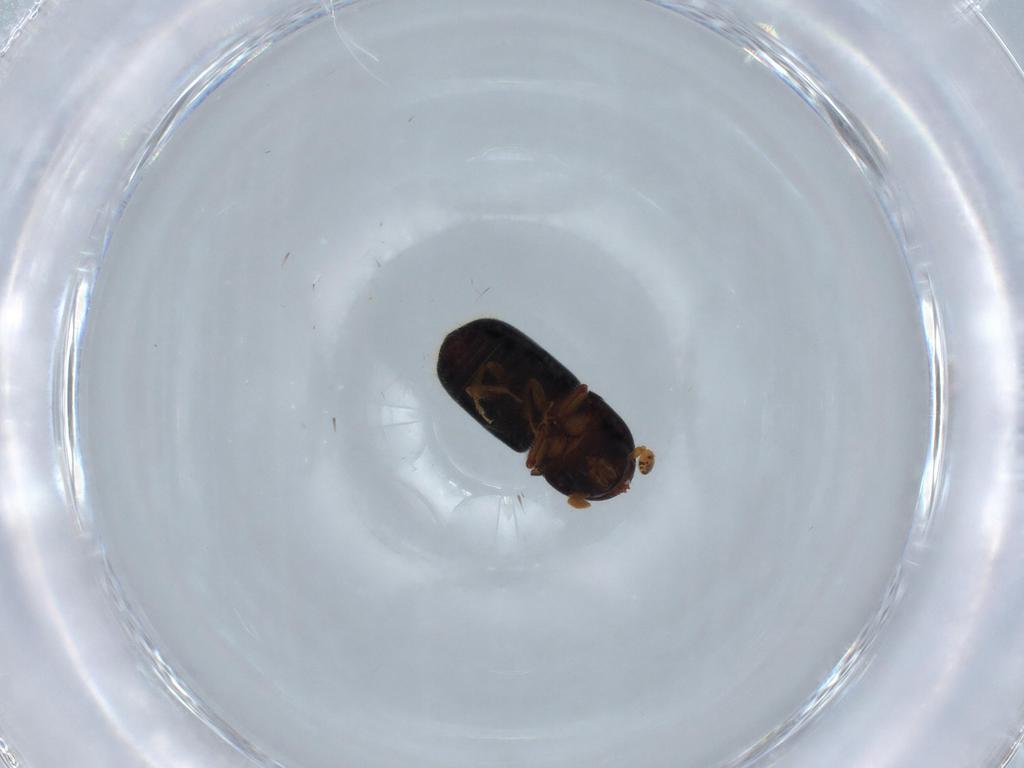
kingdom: Animalia
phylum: Arthropoda
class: Insecta
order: Coleoptera
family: Curculionidae
